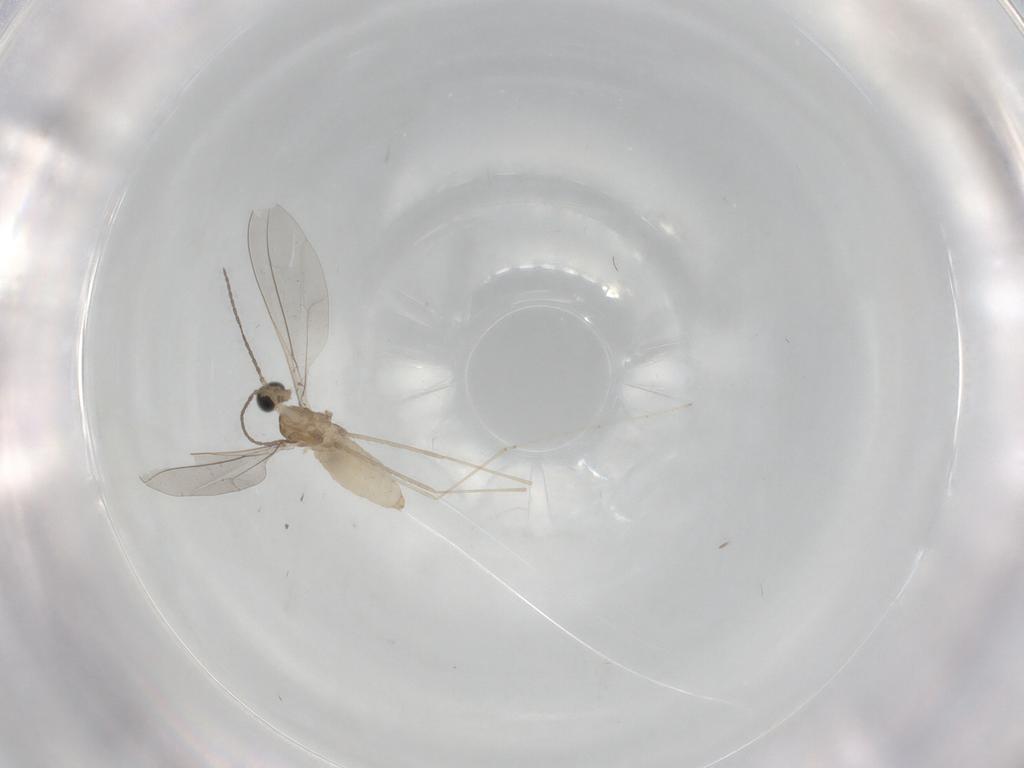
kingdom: Animalia
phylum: Arthropoda
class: Insecta
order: Diptera
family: Cecidomyiidae
